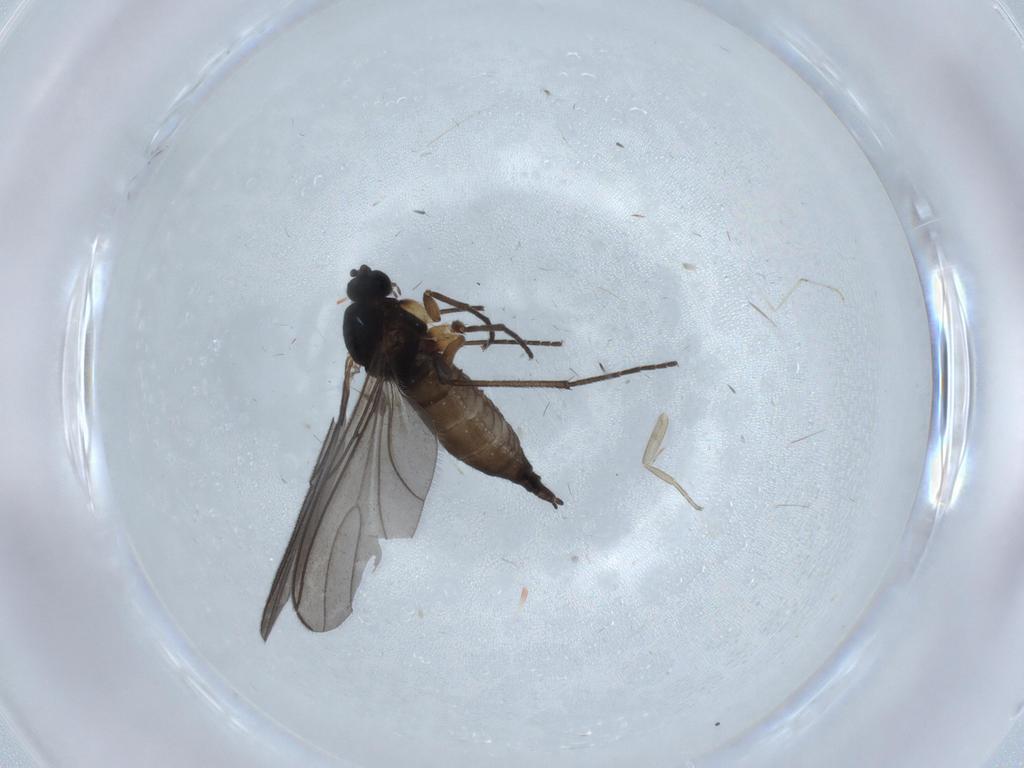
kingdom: Animalia
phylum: Arthropoda
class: Insecta
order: Diptera
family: Sciaridae
